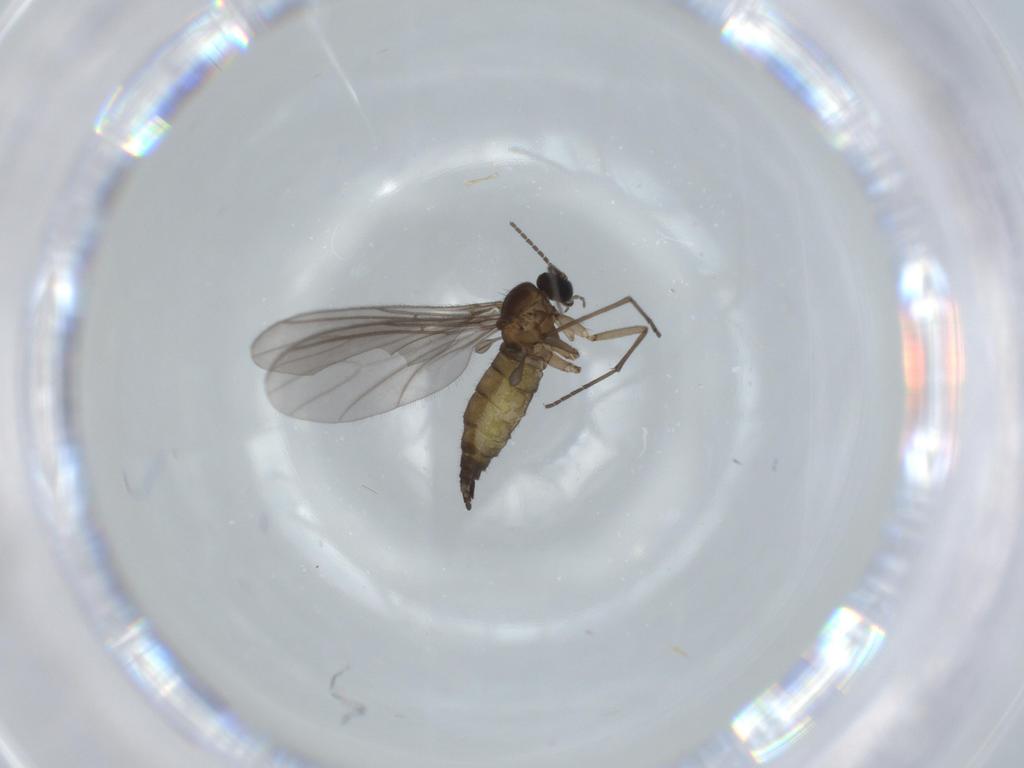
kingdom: Animalia
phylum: Arthropoda
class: Insecta
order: Diptera
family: Sciaridae
